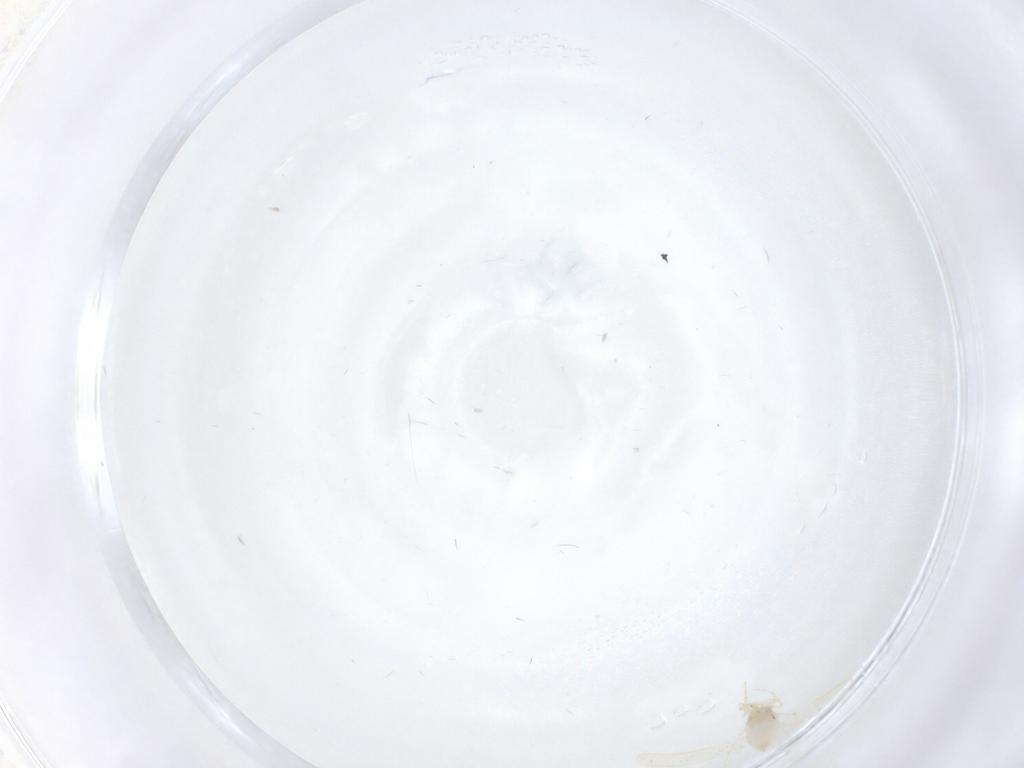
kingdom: Animalia
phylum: Arthropoda
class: Insecta
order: Hemiptera
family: Aleyrodidae
